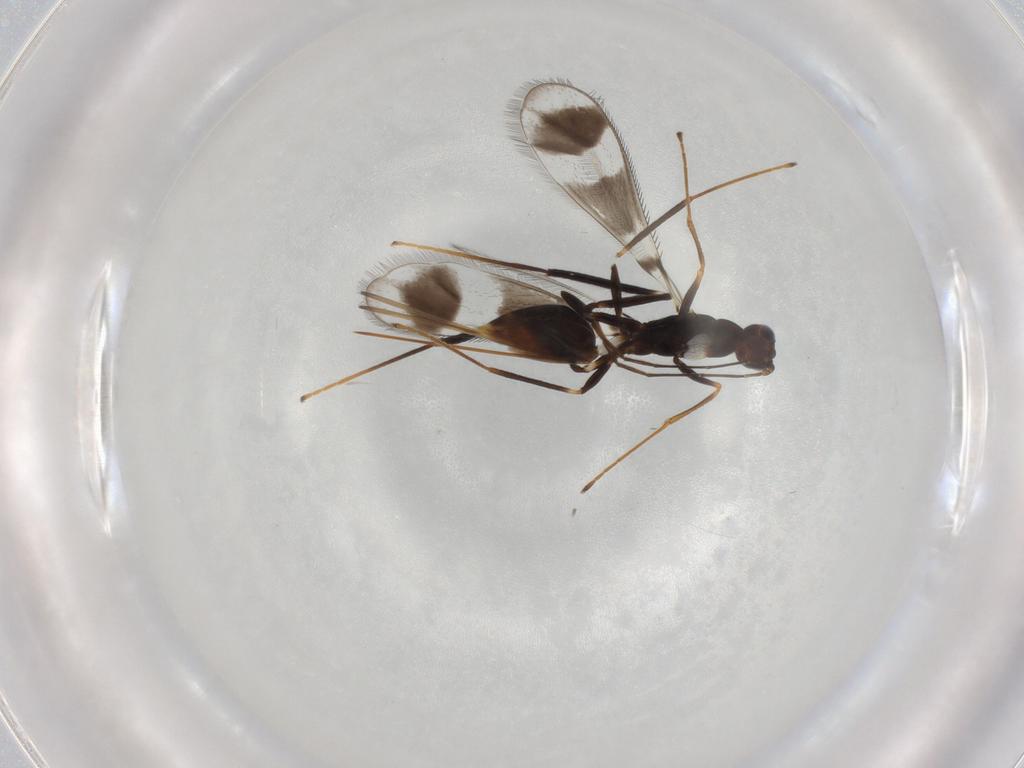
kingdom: Animalia
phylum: Arthropoda
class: Insecta
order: Hymenoptera
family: Mymaridae
